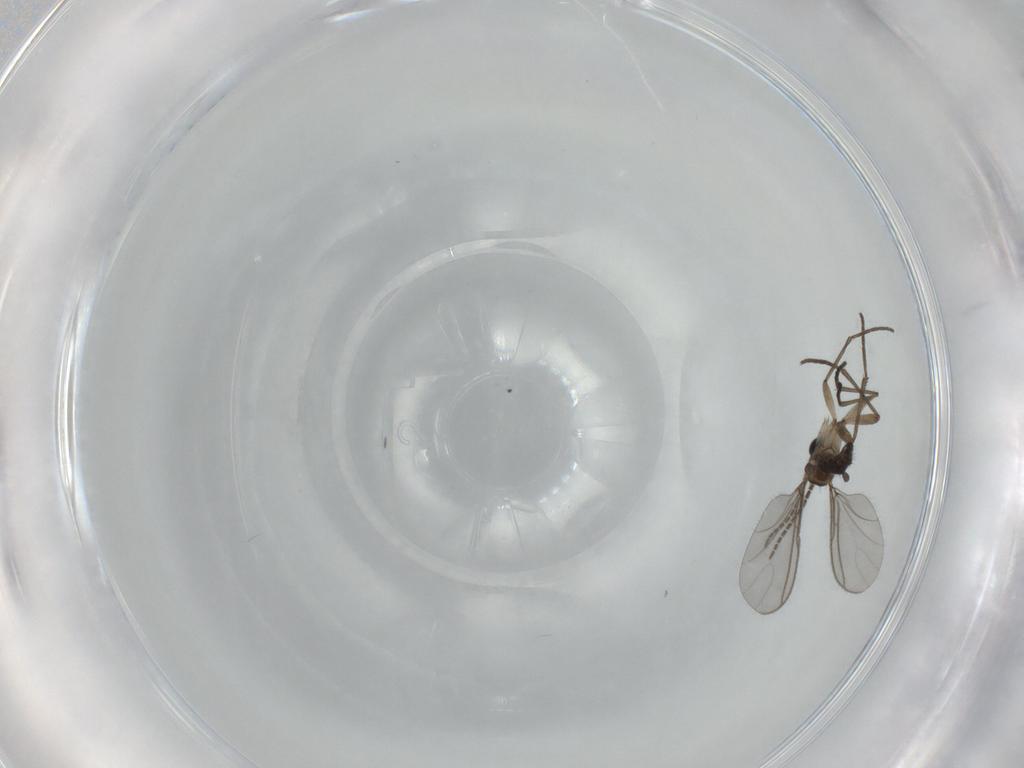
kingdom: Animalia
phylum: Arthropoda
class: Insecta
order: Diptera
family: Sciaridae
